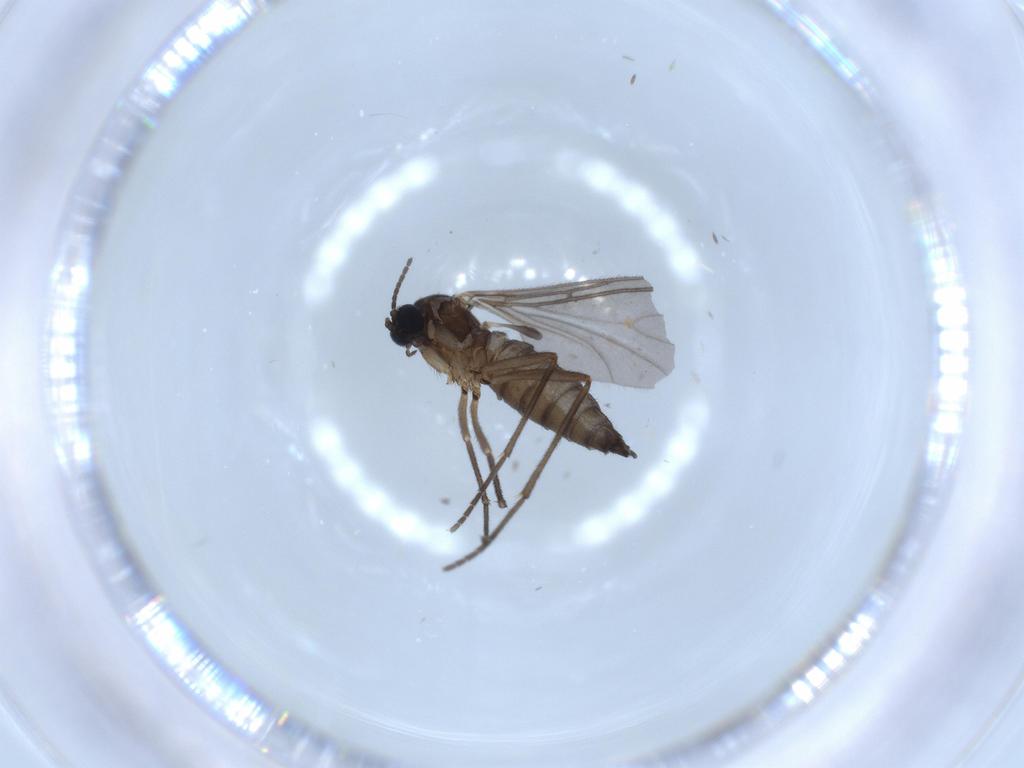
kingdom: Animalia
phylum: Arthropoda
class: Insecta
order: Diptera
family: Sciaridae
